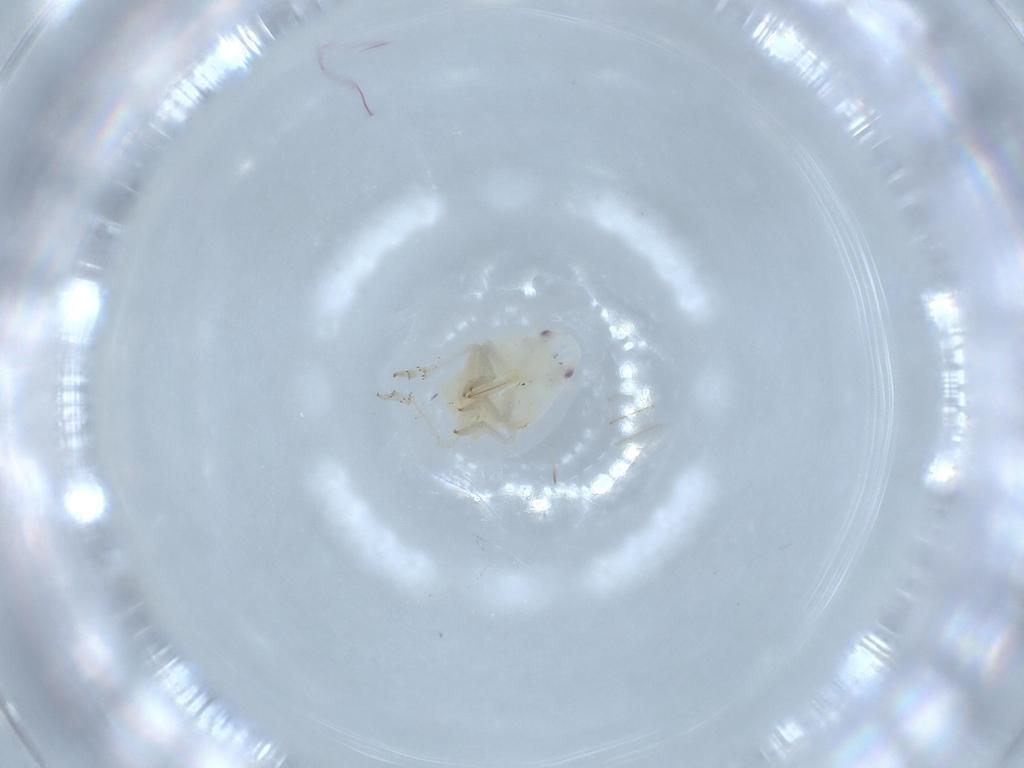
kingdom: Animalia
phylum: Arthropoda
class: Insecta
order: Hemiptera
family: Flatidae
